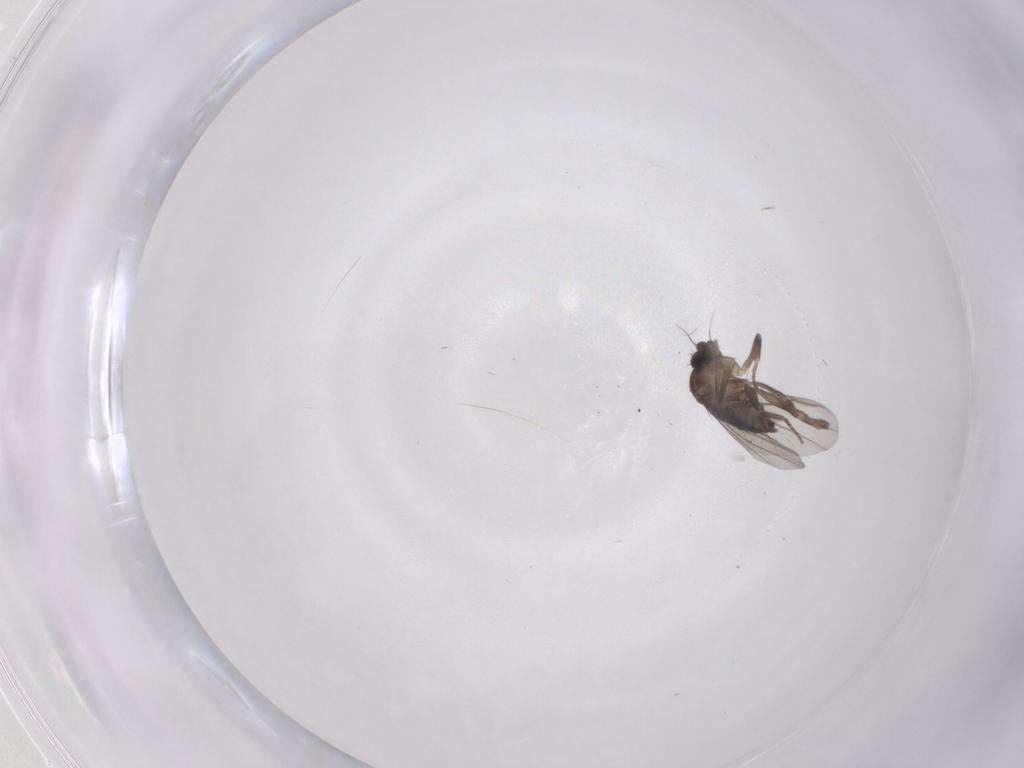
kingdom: Animalia
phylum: Arthropoda
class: Insecta
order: Diptera
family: Phoridae
